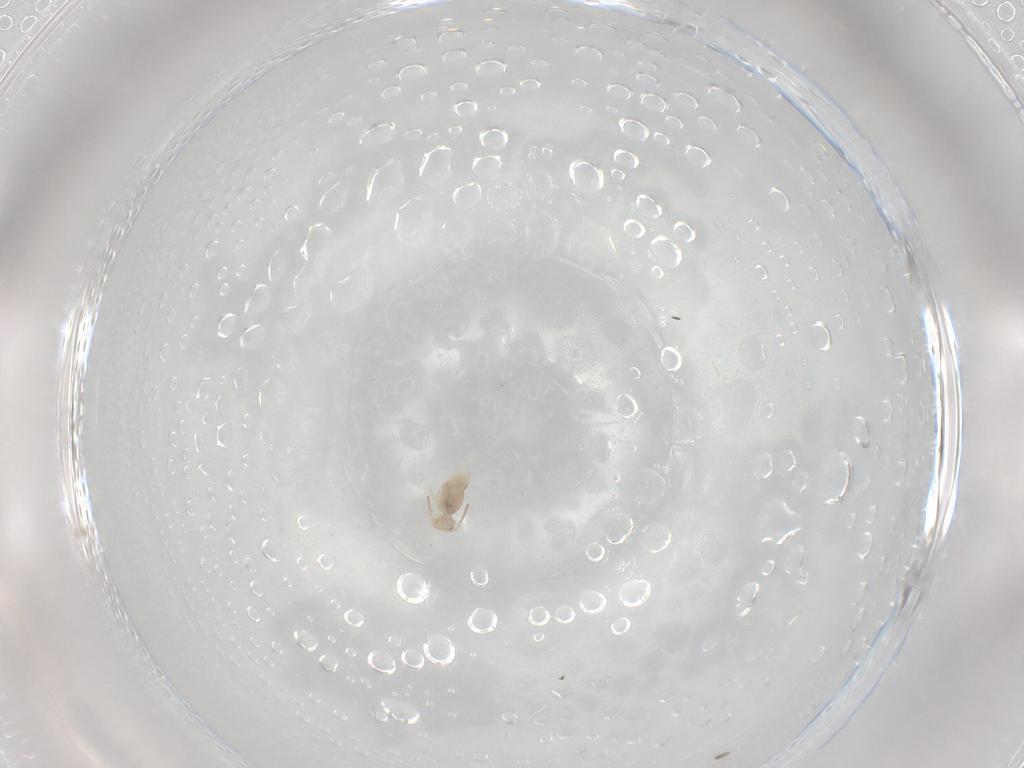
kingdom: Animalia
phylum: Arthropoda
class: Collembola
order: Symphypleona
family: Bourletiellidae
